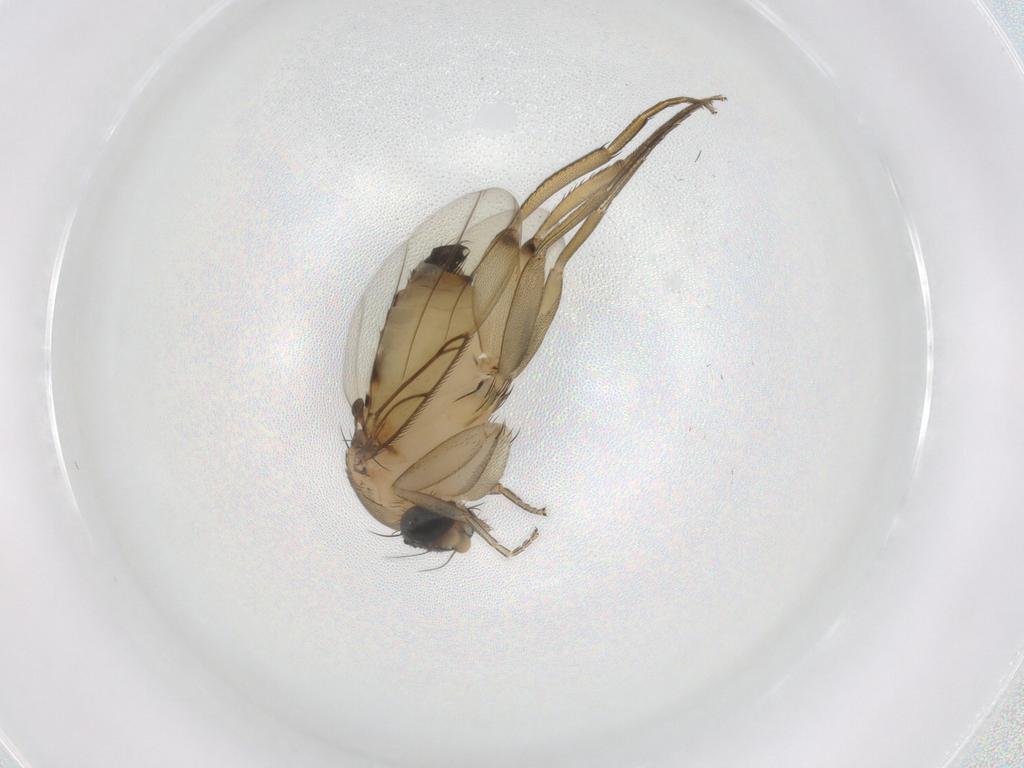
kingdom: Animalia
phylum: Arthropoda
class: Insecta
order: Diptera
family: Phoridae
